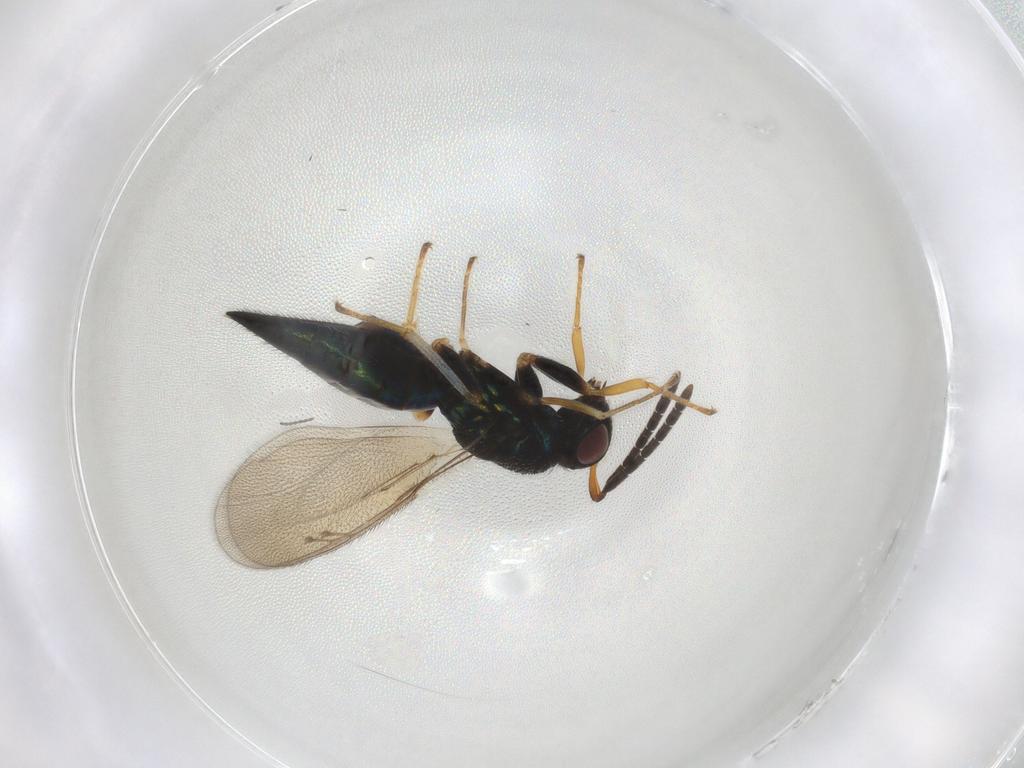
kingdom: Animalia
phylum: Arthropoda
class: Insecta
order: Hymenoptera
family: Pteromalidae
